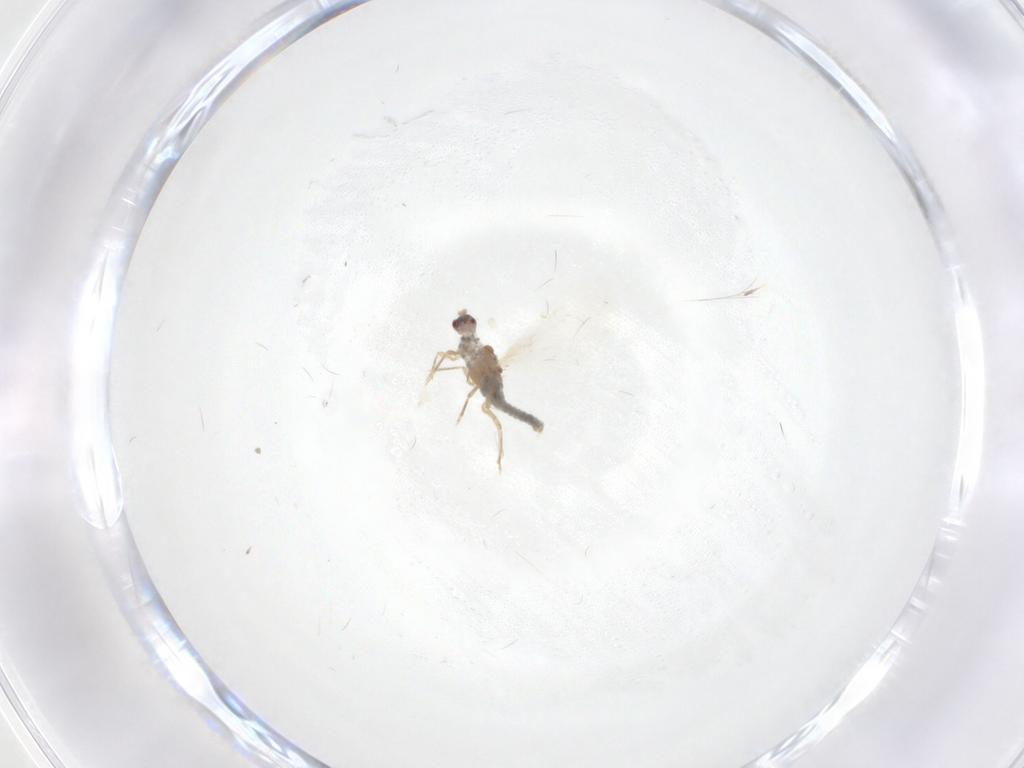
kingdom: Animalia
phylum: Arthropoda
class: Insecta
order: Diptera
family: Cecidomyiidae
